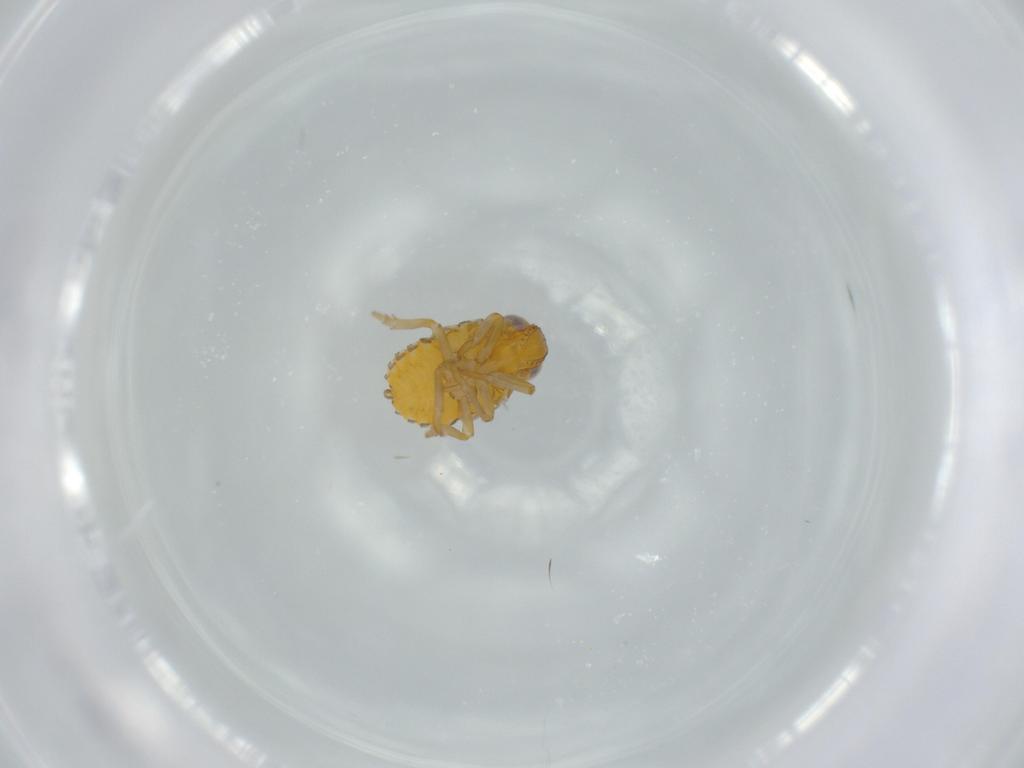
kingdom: Animalia
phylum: Arthropoda
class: Insecta
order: Hemiptera
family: Issidae
